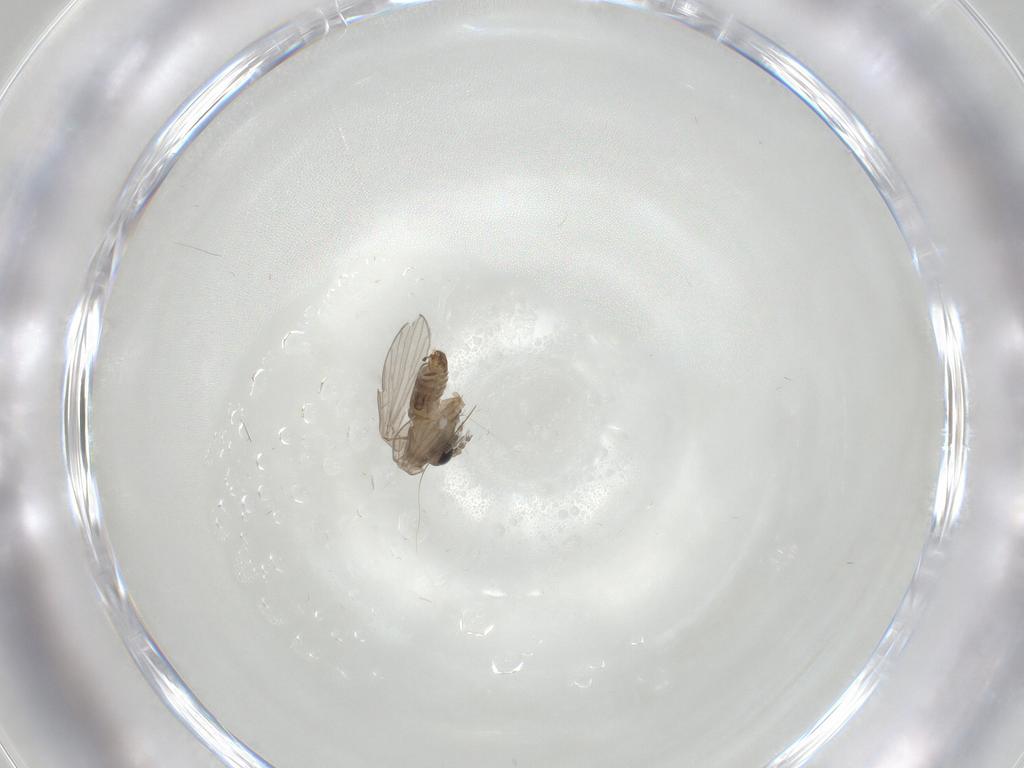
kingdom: Animalia
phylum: Arthropoda
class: Insecta
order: Diptera
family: Psychodidae
